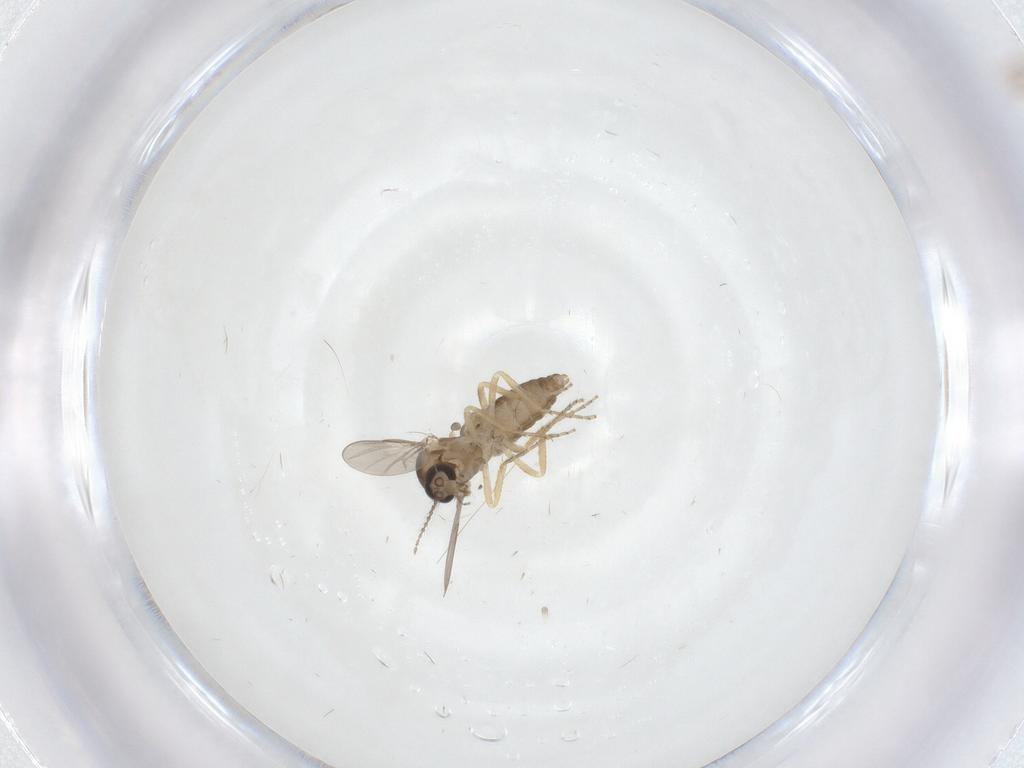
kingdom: Animalia
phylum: Arthropoda
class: Insecta
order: Diptera
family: Ceratopogonidae
